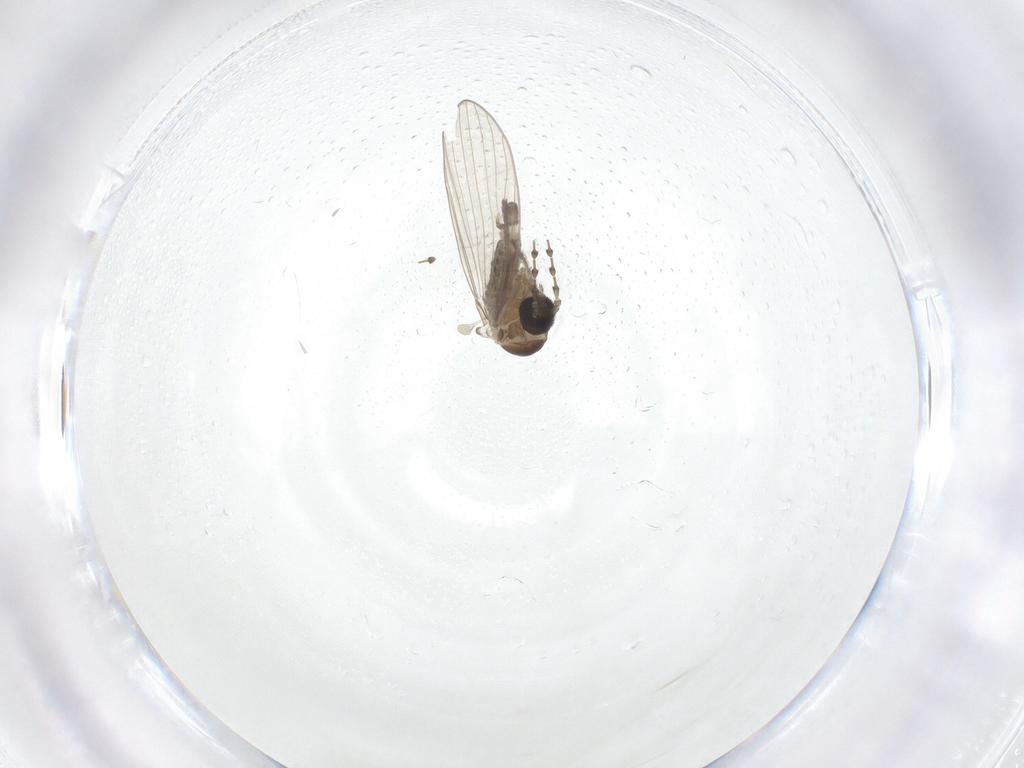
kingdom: Animalia
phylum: Arthropoda
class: Insecta
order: Diptera
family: Psychodidae
